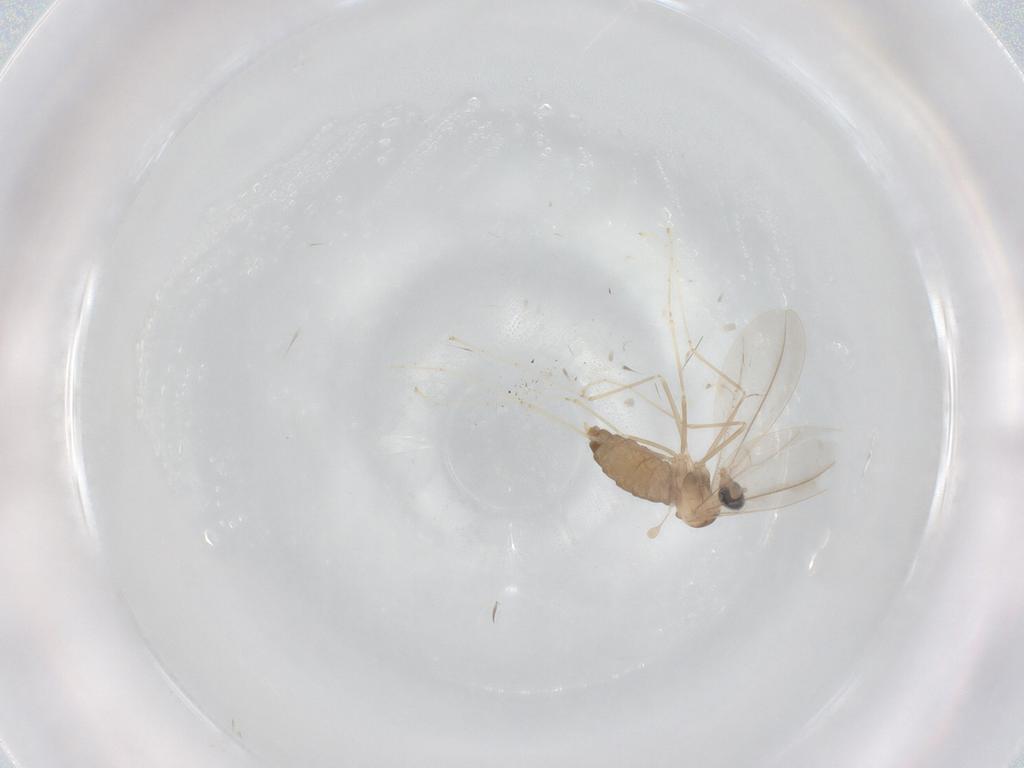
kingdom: Animalia
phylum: Arthropoda
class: Insecta
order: Diptera
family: Cecidomyiidae
